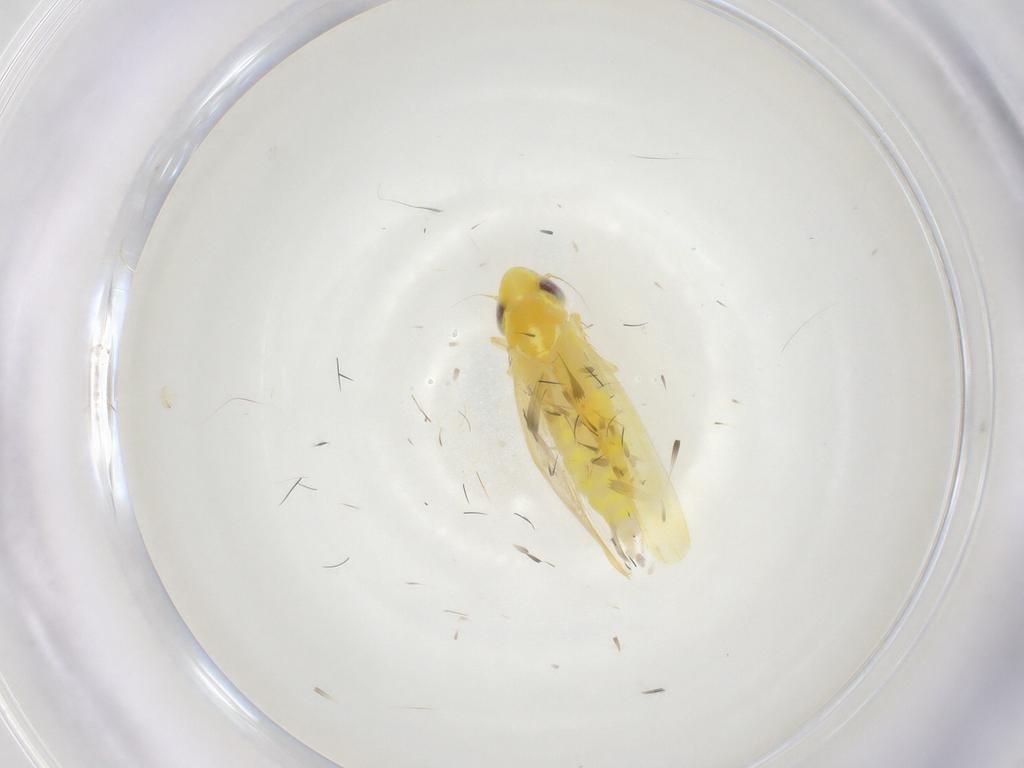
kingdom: Animalia
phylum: Arthropoda
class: Insecta
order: Hemiptera
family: Cicadellidae
